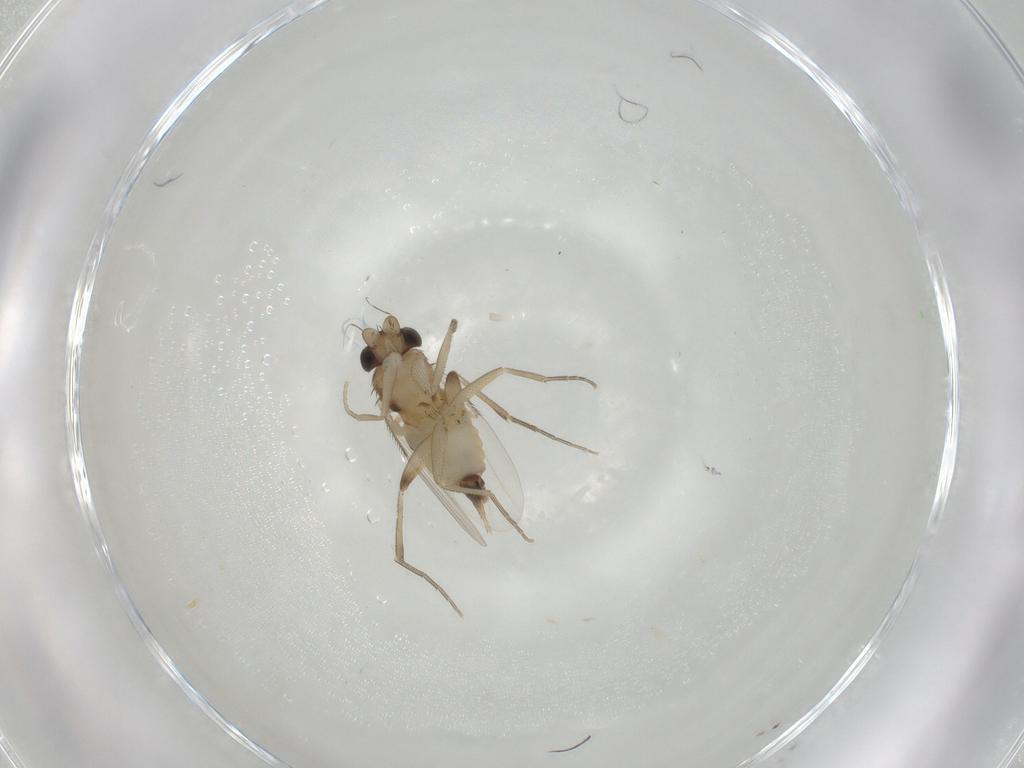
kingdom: Animalia
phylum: Arthropoda
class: Insecta
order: Diptera
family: Phoridae
